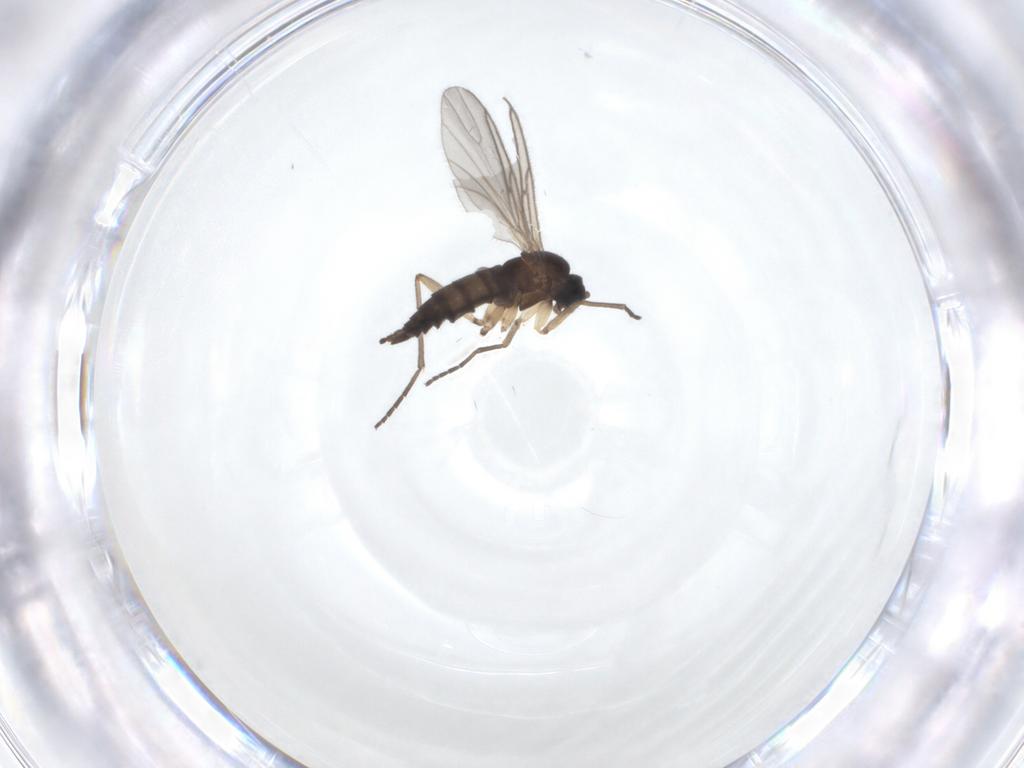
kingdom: Animalia
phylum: Arthropoda
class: Insecta
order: Diptera
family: Sciaridae
